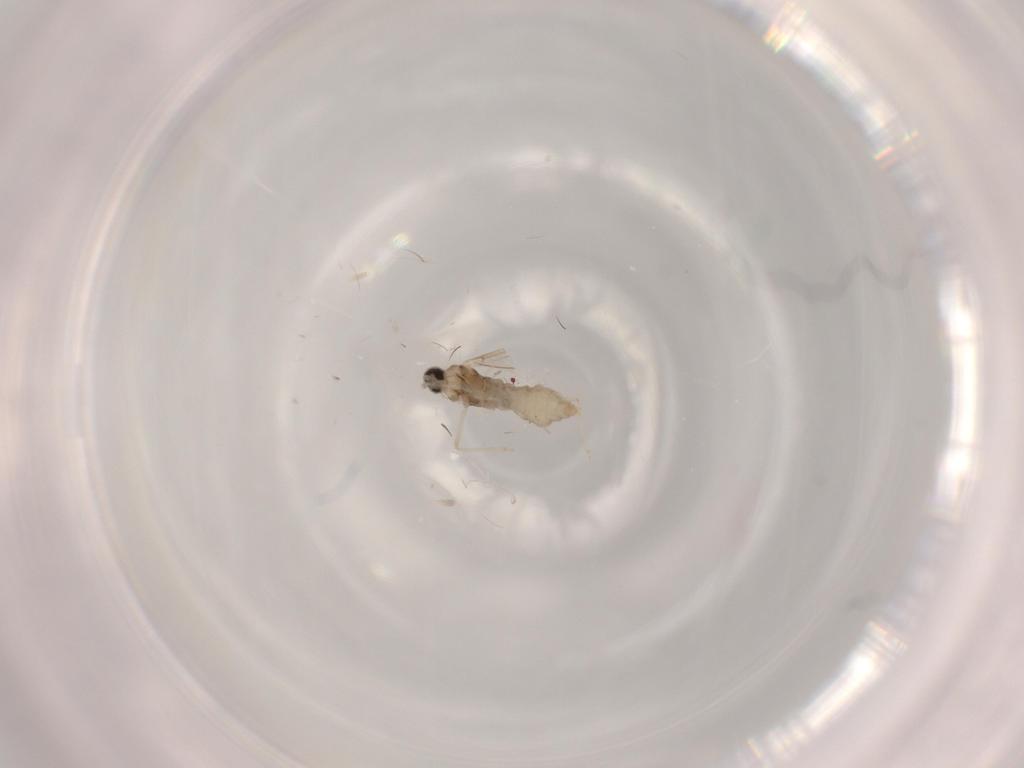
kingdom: Animalia
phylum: Arthropoda
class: Insecta
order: Diptera
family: Cecidomyiidae
